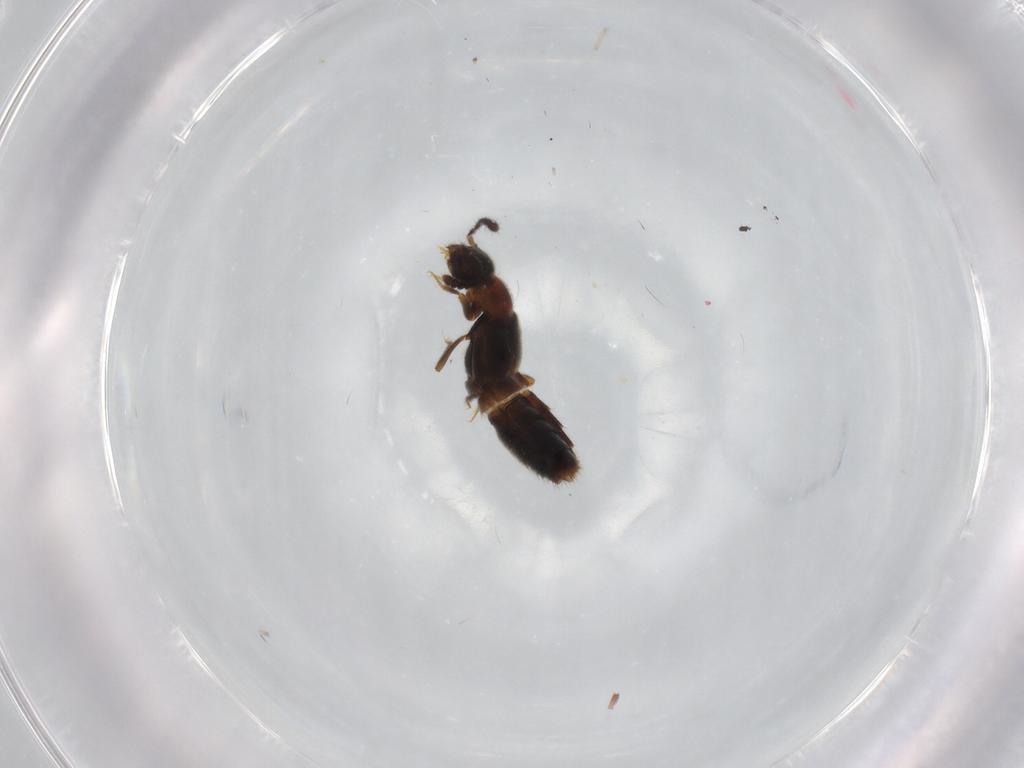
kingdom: Animalia
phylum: Arthropoda
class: Insecta
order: Coleoptera
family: Staphylinidae
